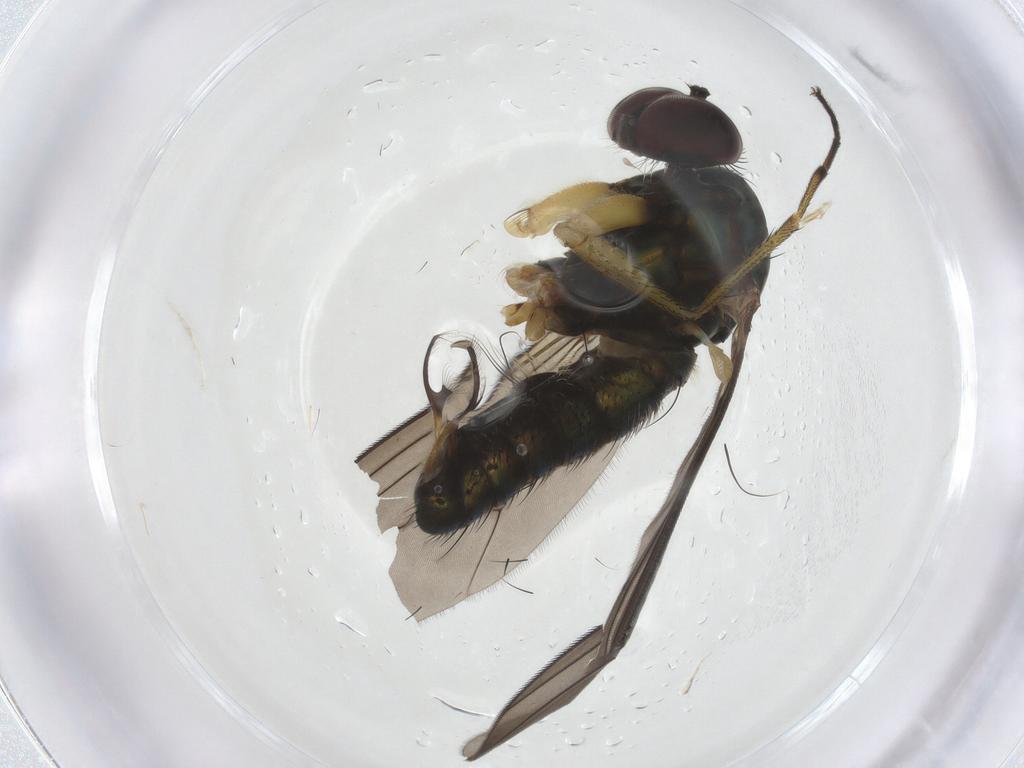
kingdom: Animalia
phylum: Arthropoda
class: Insecta
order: Diptera
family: Dolichopodidae
